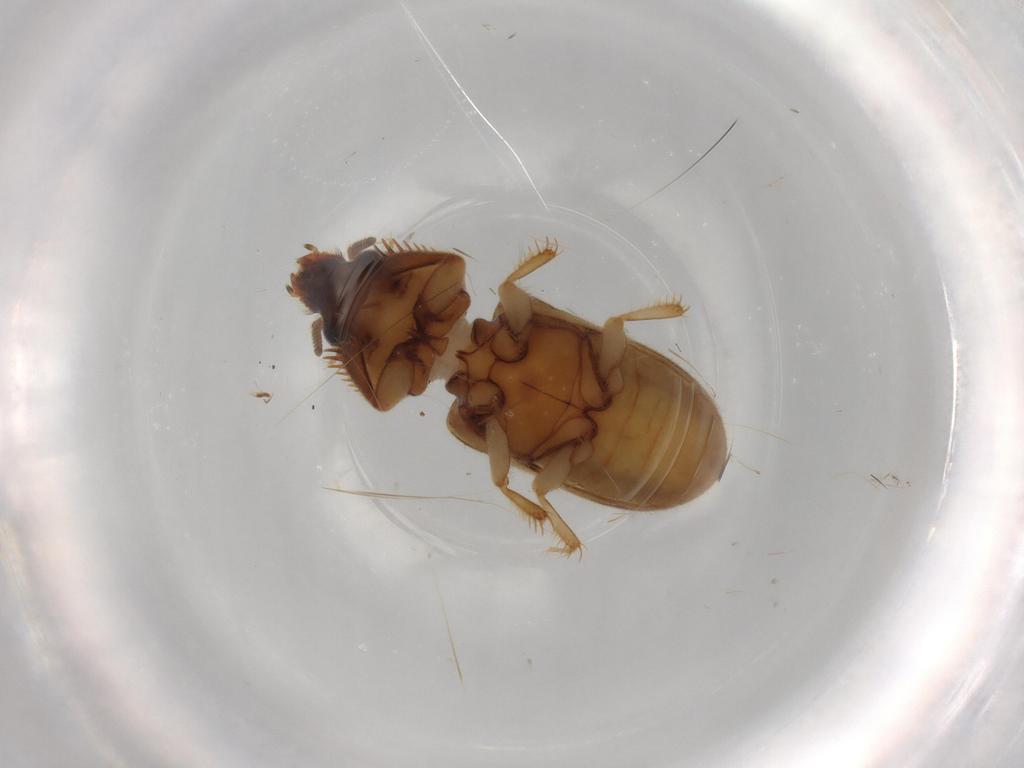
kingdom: Animalia
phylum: Arthropoda
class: Insecta
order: Coleoptera
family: Heteroceridae
